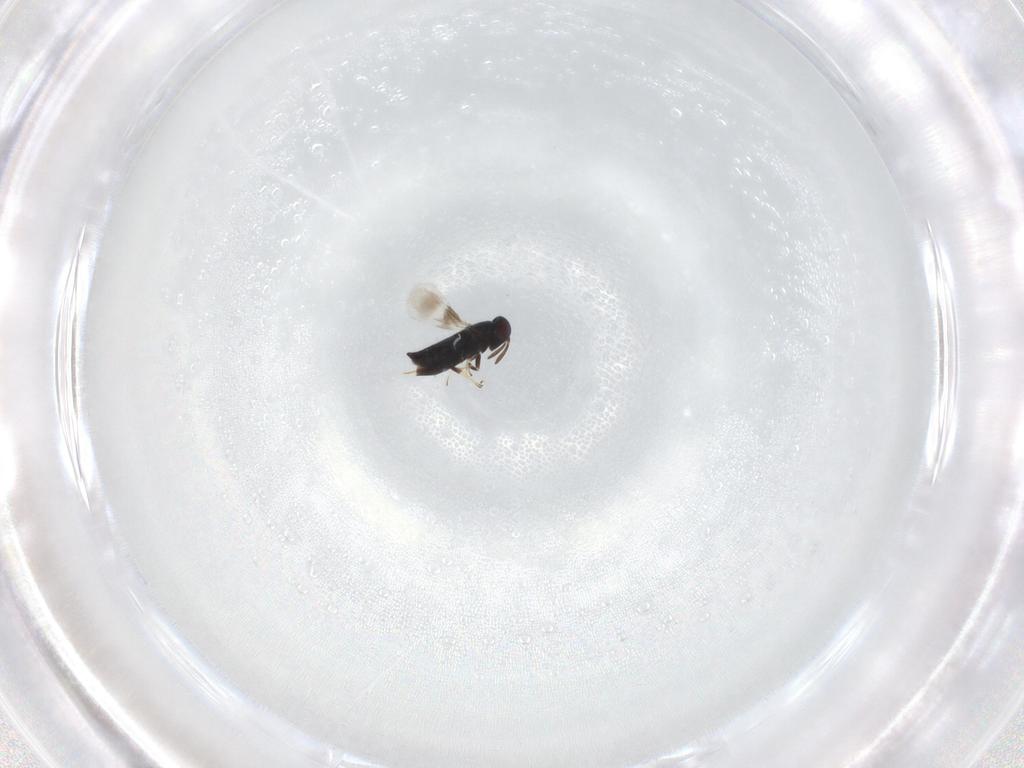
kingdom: Animalia
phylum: Arthropoda
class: Insecta
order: Hymenoptera
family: Signiphoridae
